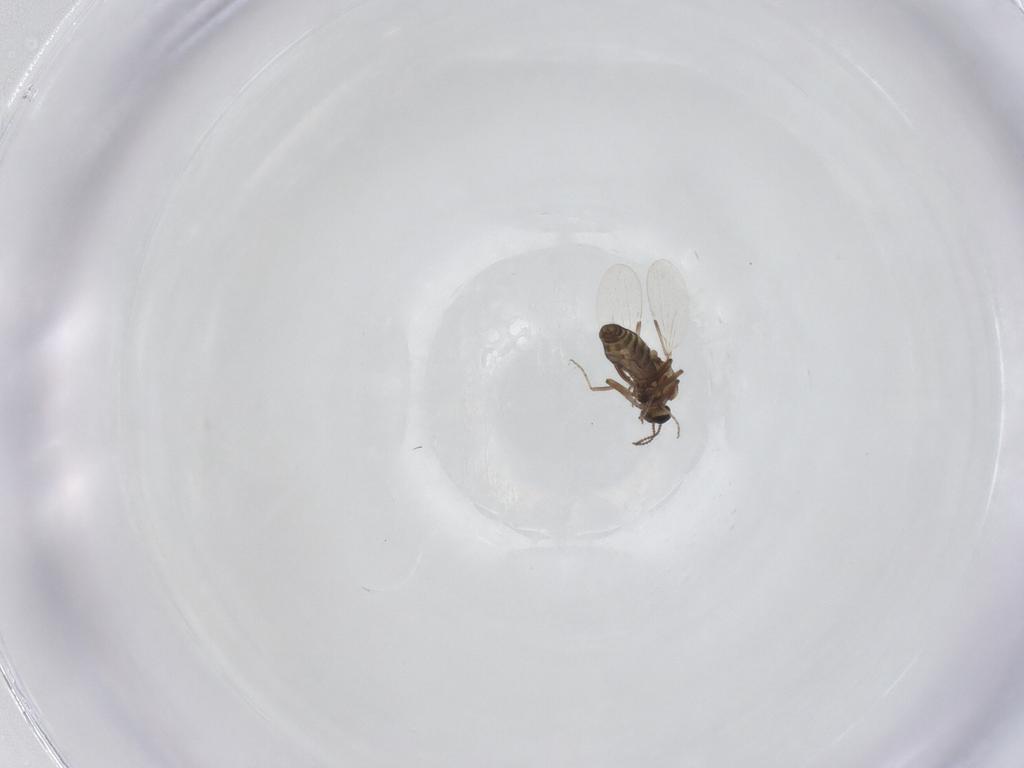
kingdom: Animalia
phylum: Arthropoda
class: Insecta
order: Diptera
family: Ceratopogonidae
